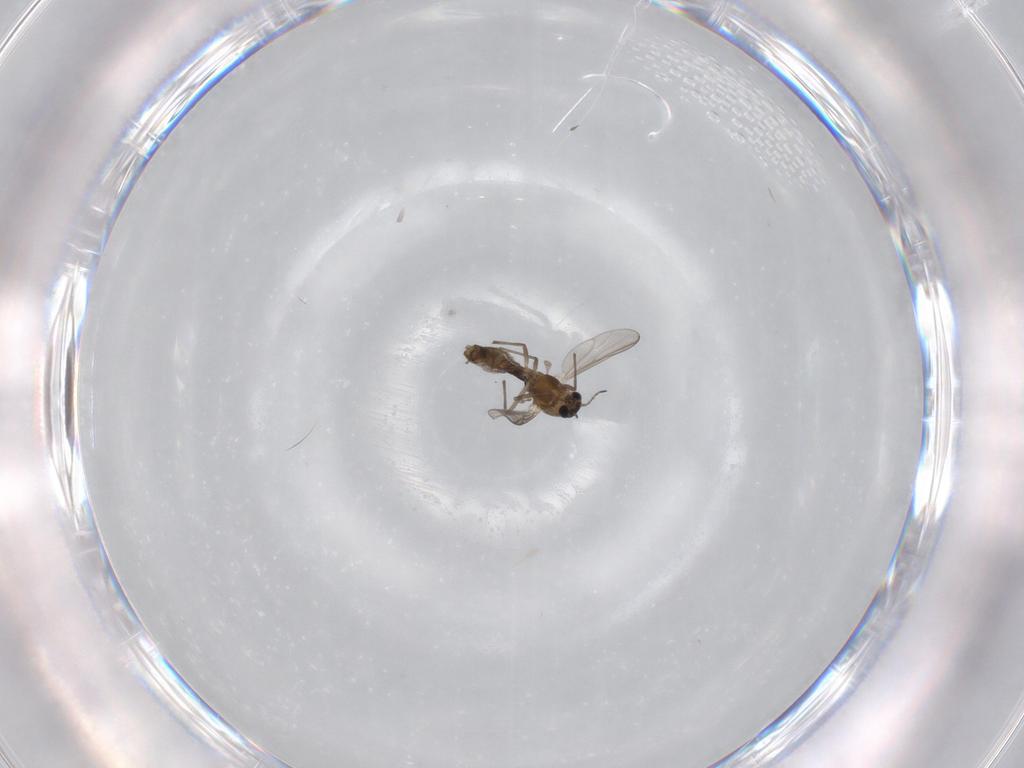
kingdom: Animalia
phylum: Arthropoda
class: Insecta
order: Diptera
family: Chironomidae
